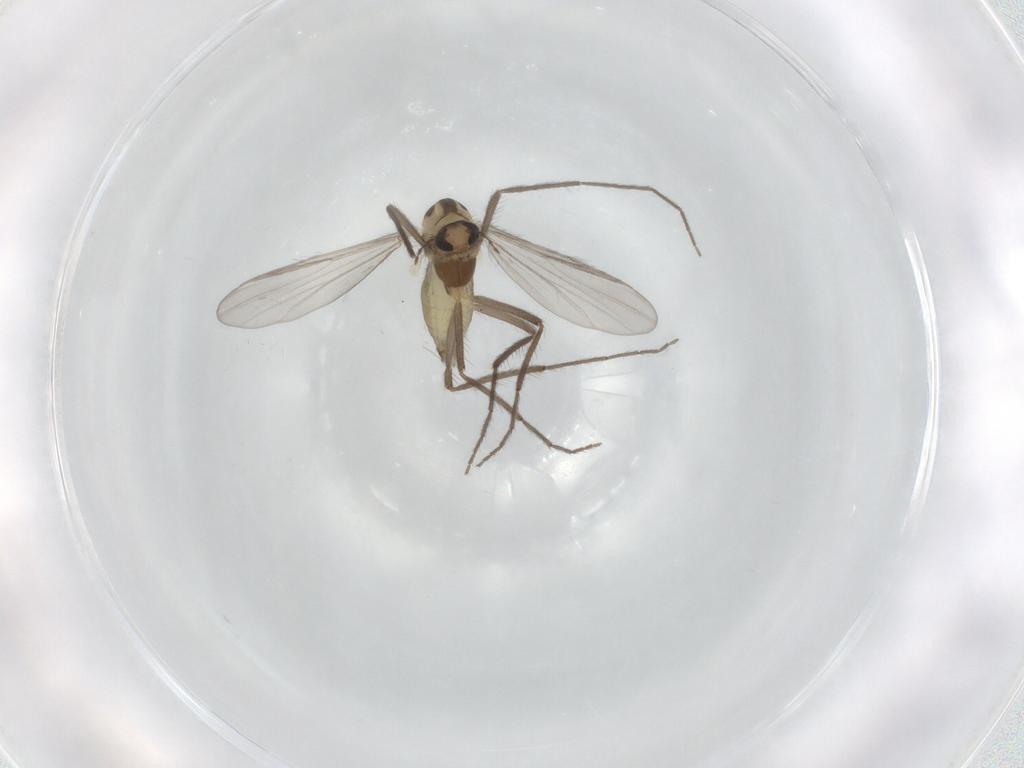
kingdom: Animalia
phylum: Arthropoda
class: Insecta
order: Diptera
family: Chironomidae
